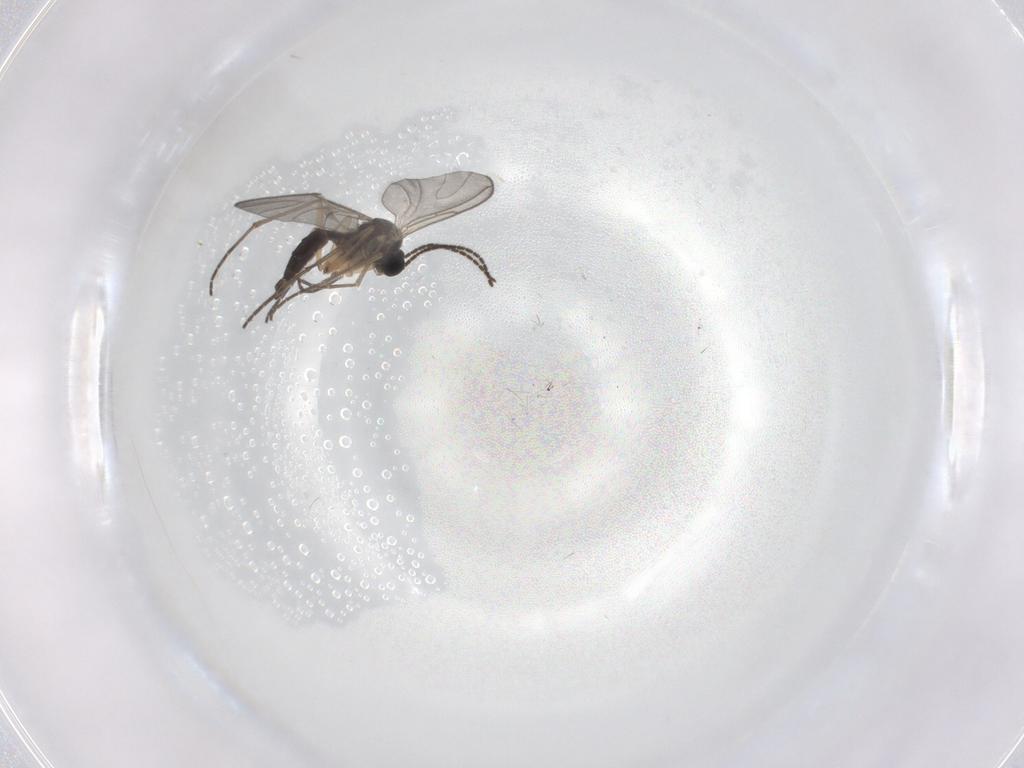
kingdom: Animalia
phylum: Arthropoda
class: Insecta
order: Diptera
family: Sciaridae
